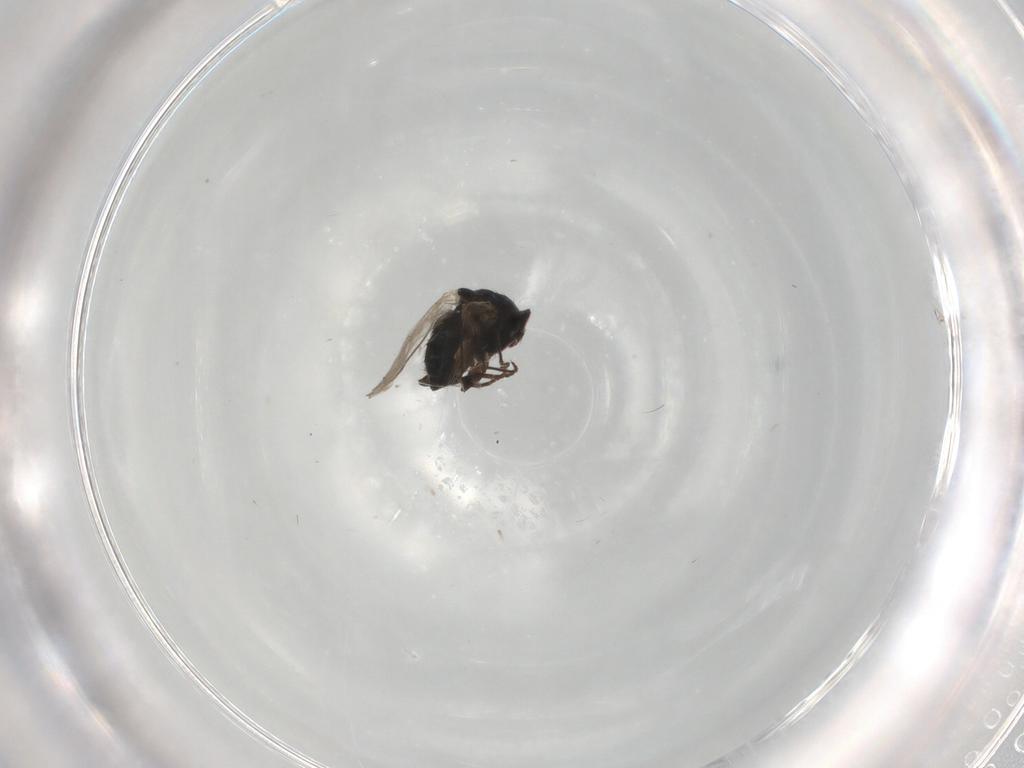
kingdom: Animalia
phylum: Arthropoda
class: Insecta
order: Diptera
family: Agromyzidae
